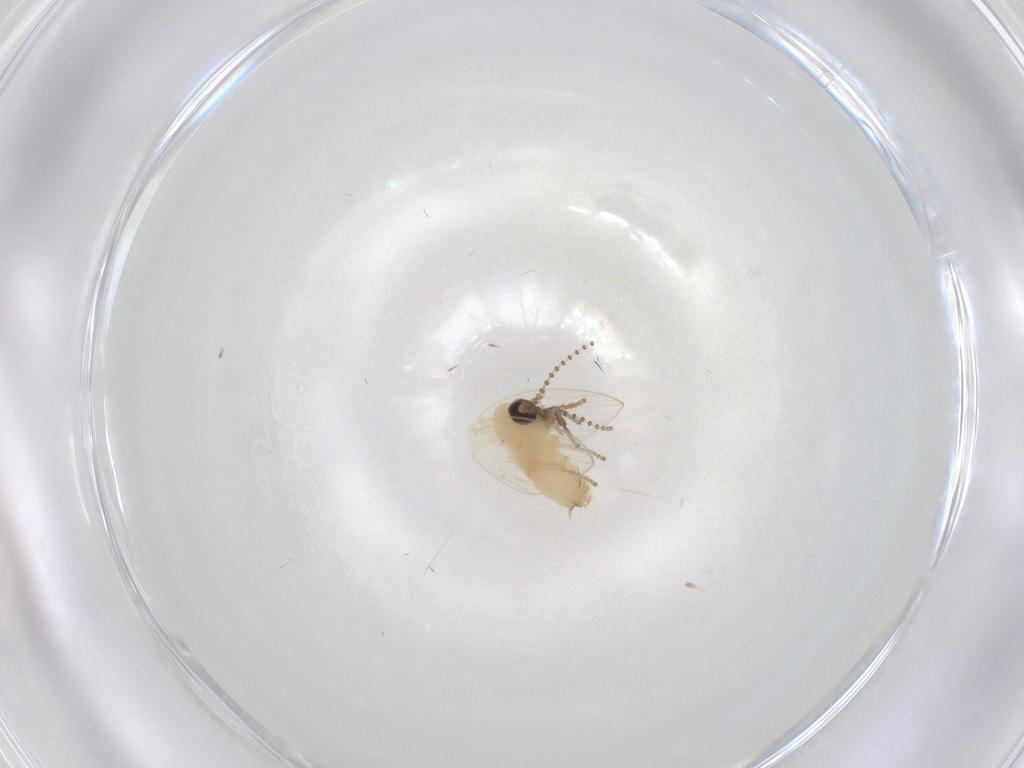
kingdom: Animalia
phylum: Arthropoda
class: Insecta
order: Diptera
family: Psychodidae
